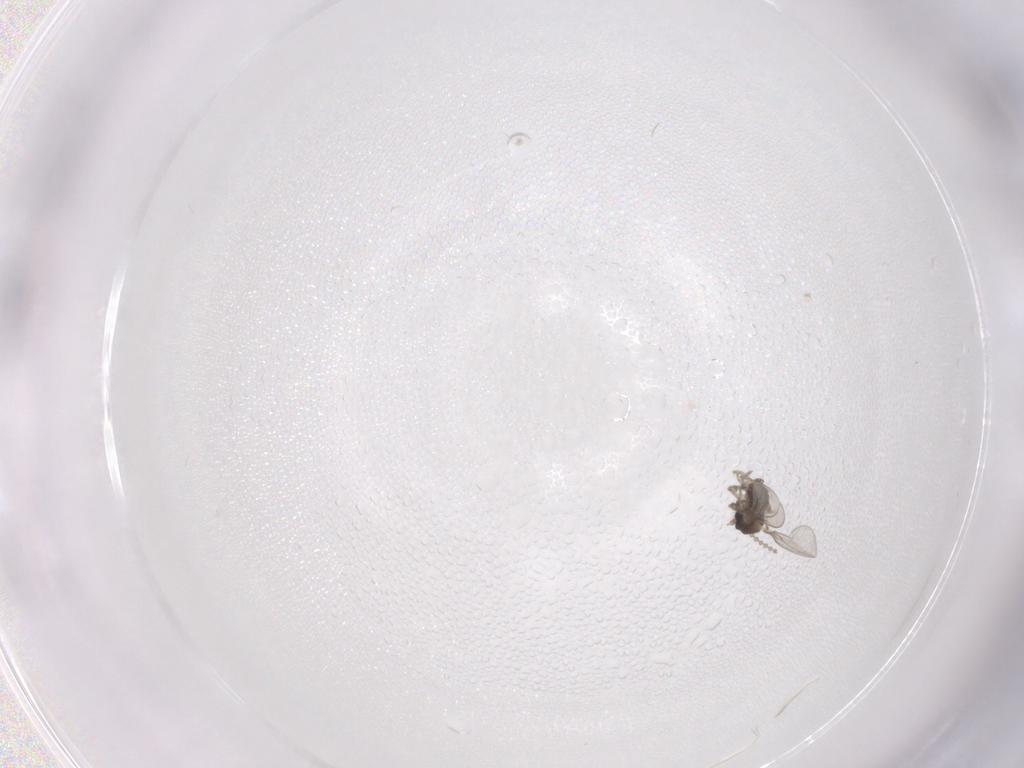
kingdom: Animalia
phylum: Arthropoda
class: Insecta
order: Diptera
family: Cecidomyiidae
